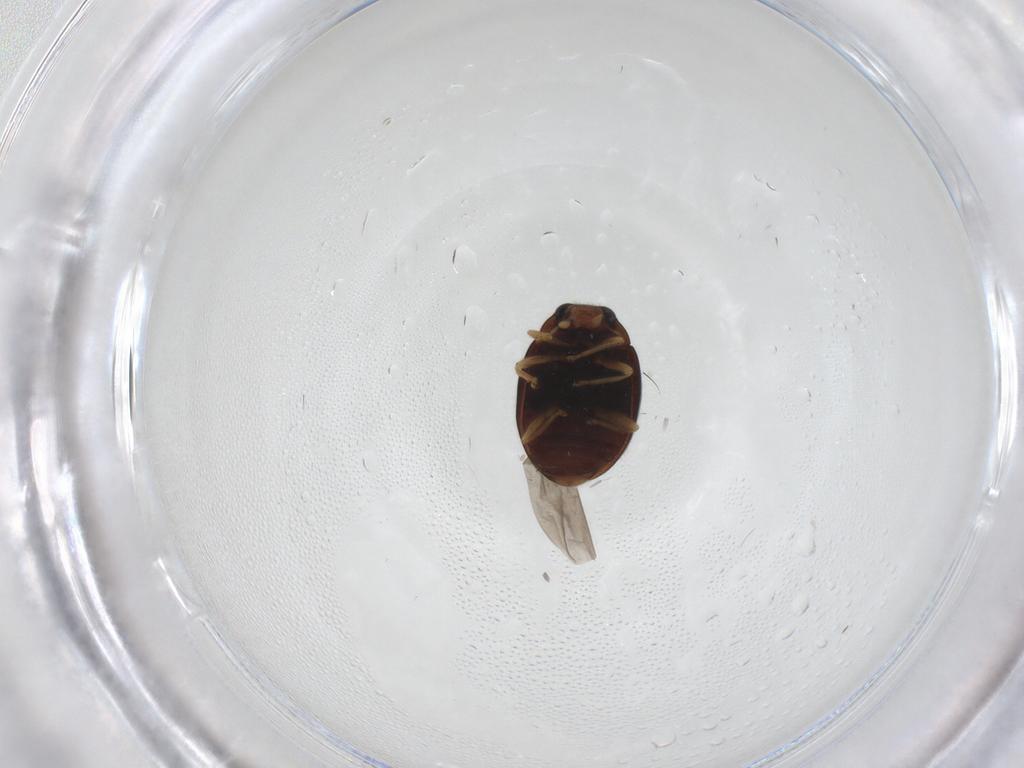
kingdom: Animalia
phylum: Arthropoda
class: Insecta
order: Coleoptera
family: Coccinellidae
